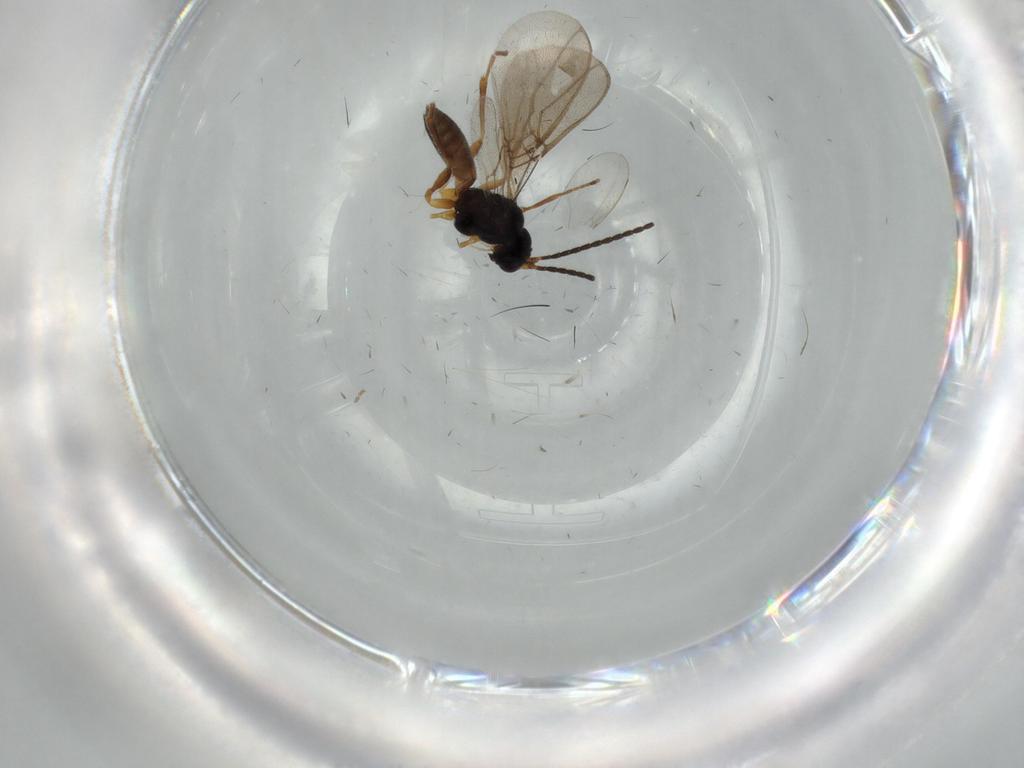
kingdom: Animalia
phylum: Arthropoda
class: Insecta
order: Hymenoptera
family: Braconidae
